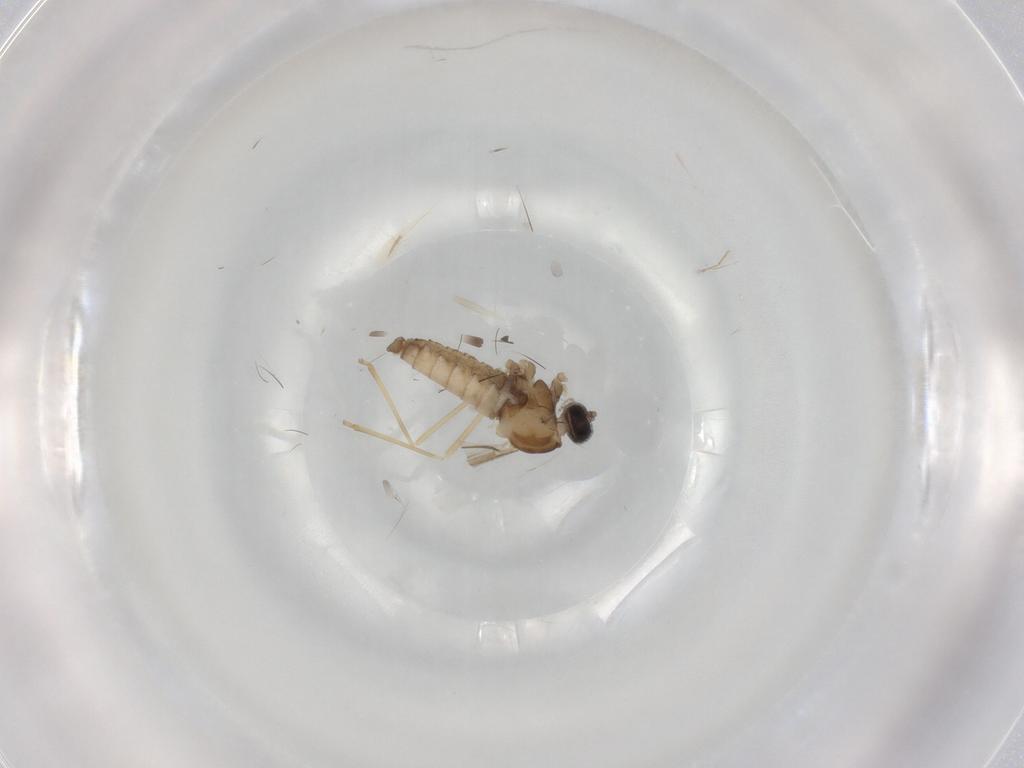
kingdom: Animalia
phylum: Arthropoda
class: Insecta
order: Diptera
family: Cecidomyiidae
